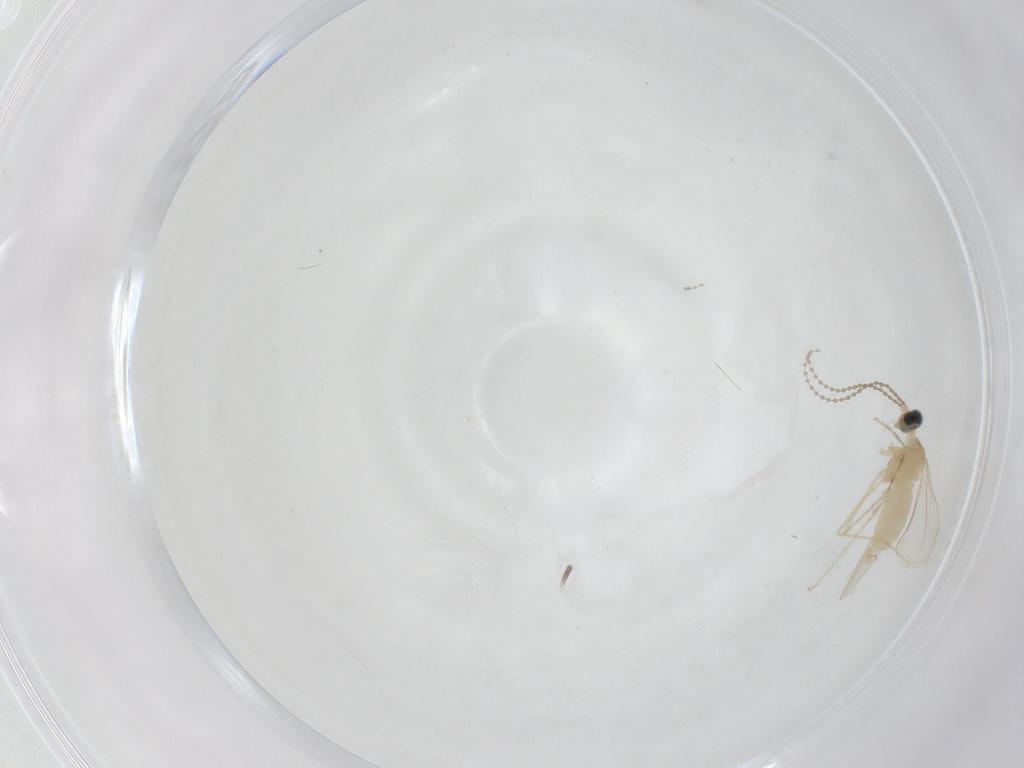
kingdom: Animalia
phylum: Arthropoda
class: Insecta
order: Diptera
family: Cecidomyiidae
